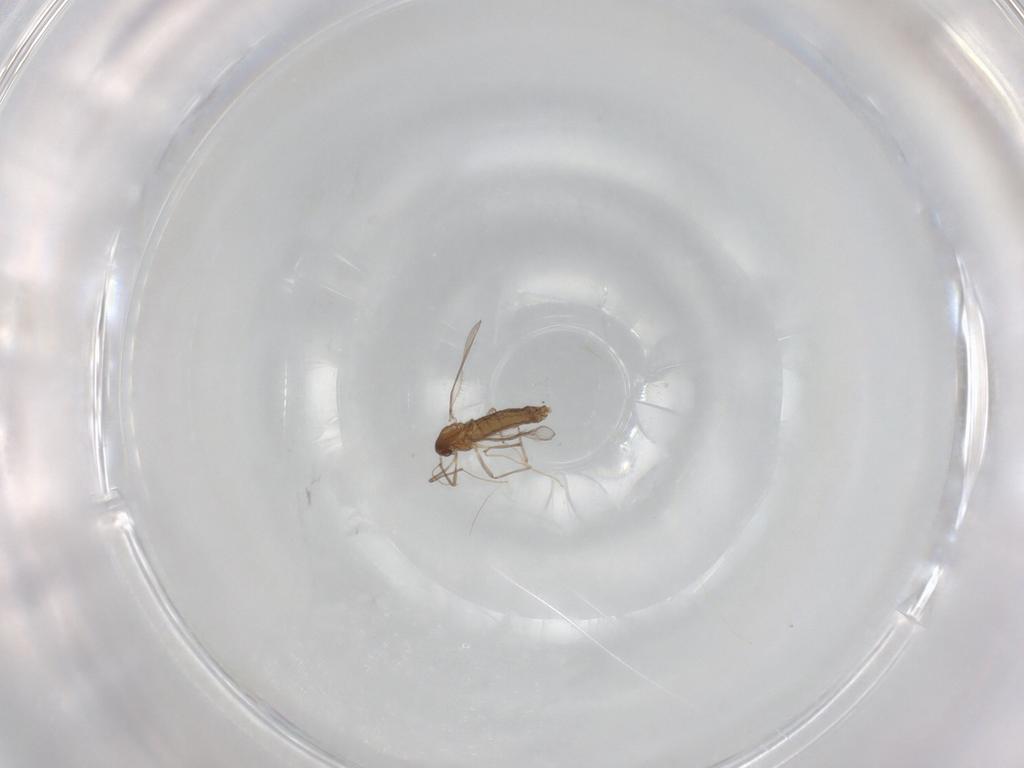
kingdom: Animalia
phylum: Arthropoda
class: Insecta
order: Diptera
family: Chironomidae
